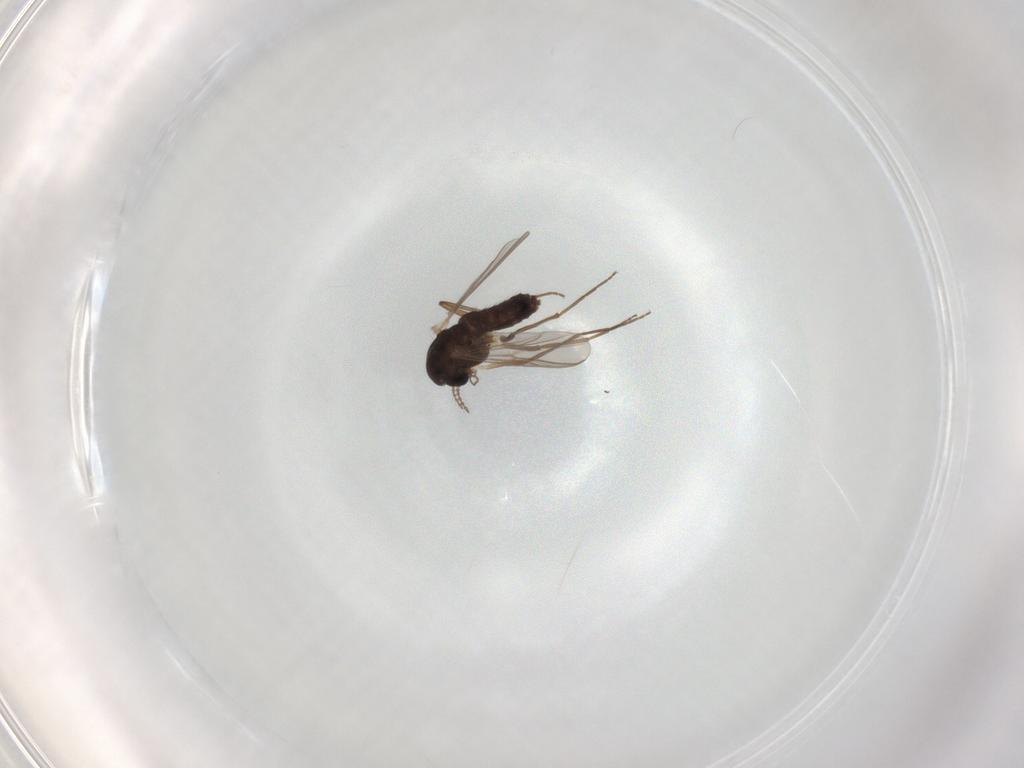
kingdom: Animalia
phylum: Arthropoda
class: Insecta
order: Diptera
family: Chironomidae
